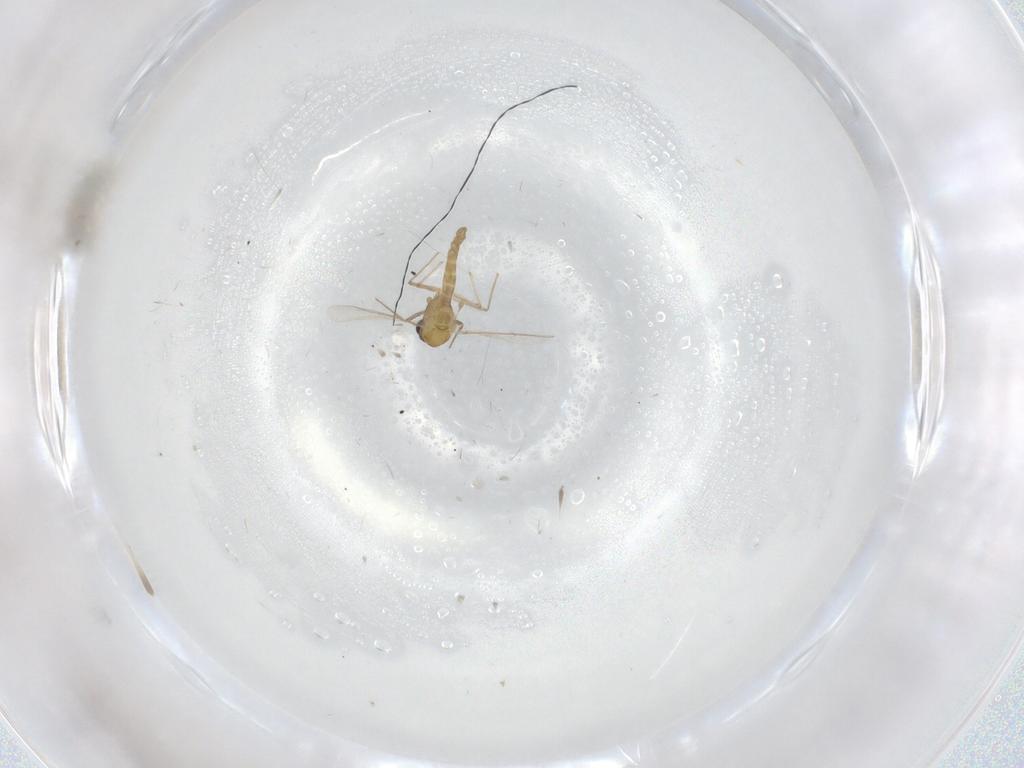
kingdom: Animalia
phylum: Arthropoda
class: Insecta
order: Diptera
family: Chironomidae
